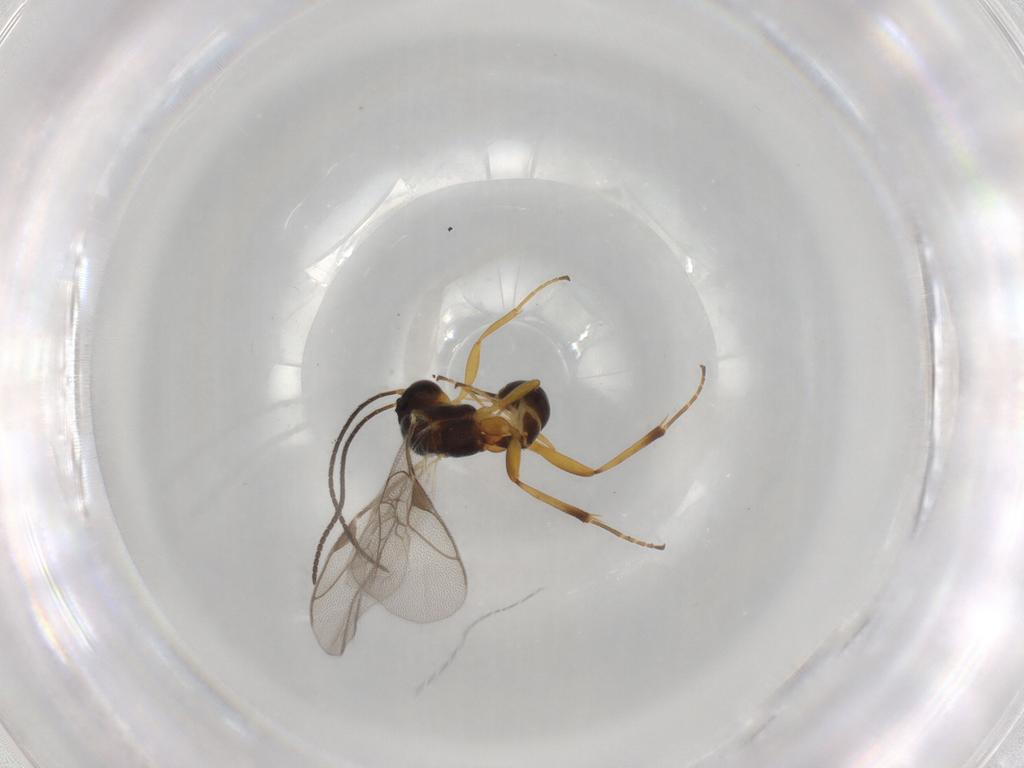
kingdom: Animalia
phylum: Arthropoda
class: Insecta
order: Hymenoptera
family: Ichneumonidae
